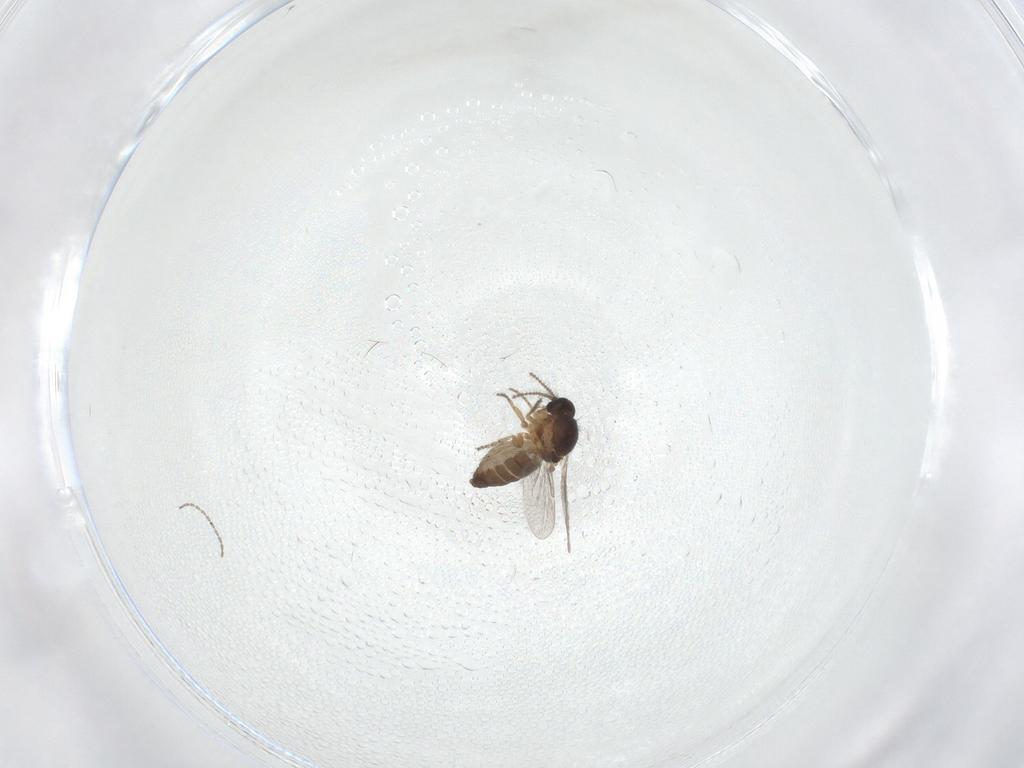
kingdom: Animalia
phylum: Arthropoda
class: Insecta
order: Diptera
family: Ceratopogonidae
